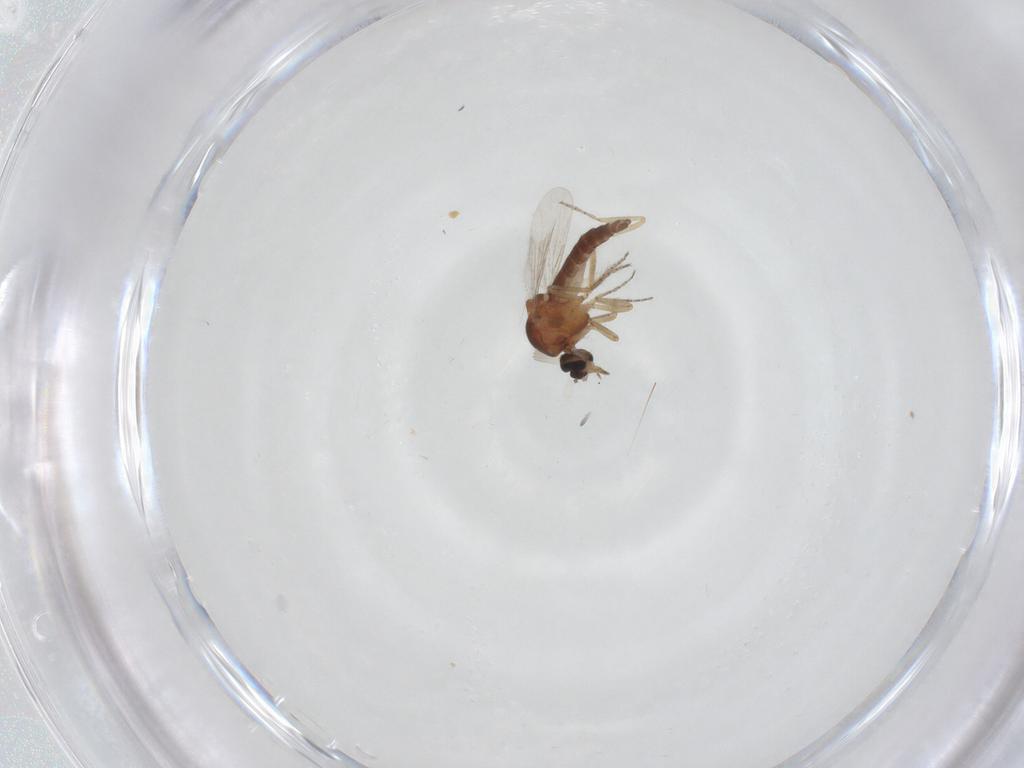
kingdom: Animalia
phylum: Arthropoda
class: Insecta
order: Diptera
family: Ceratopogonidae
